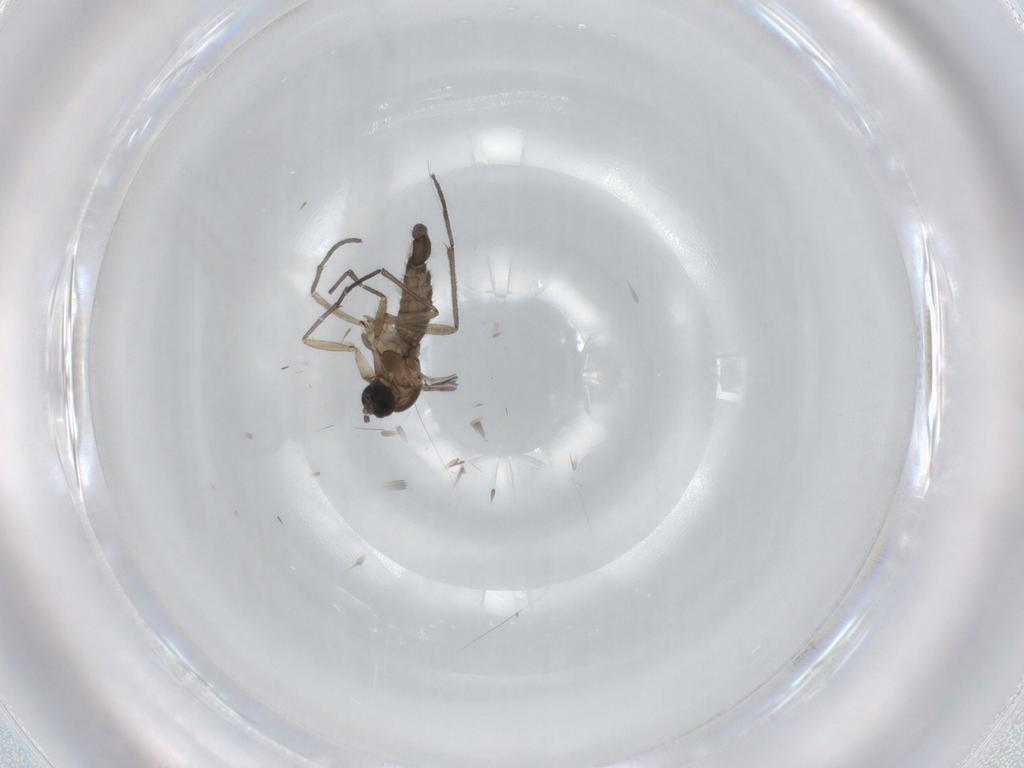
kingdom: Animalia
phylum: Arthropoda
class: Insecta
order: Diptera
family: Sciaridae
